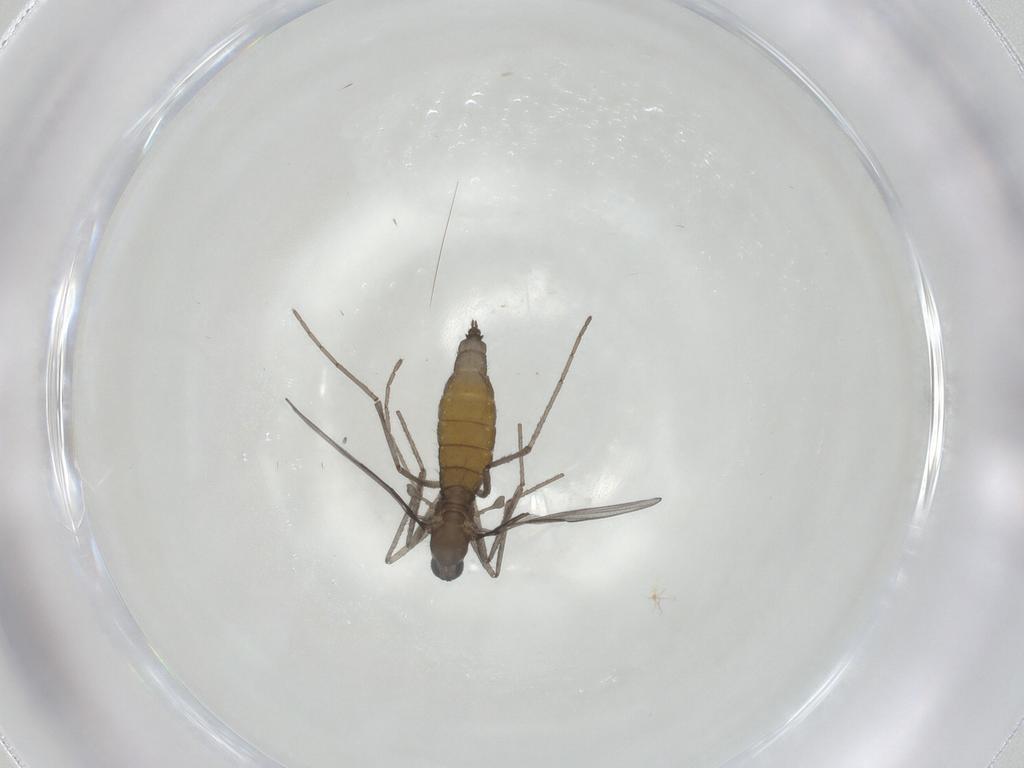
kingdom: Animalia
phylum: Arthropoda
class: Insecta
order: Diptera
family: Cecidomyiidae
